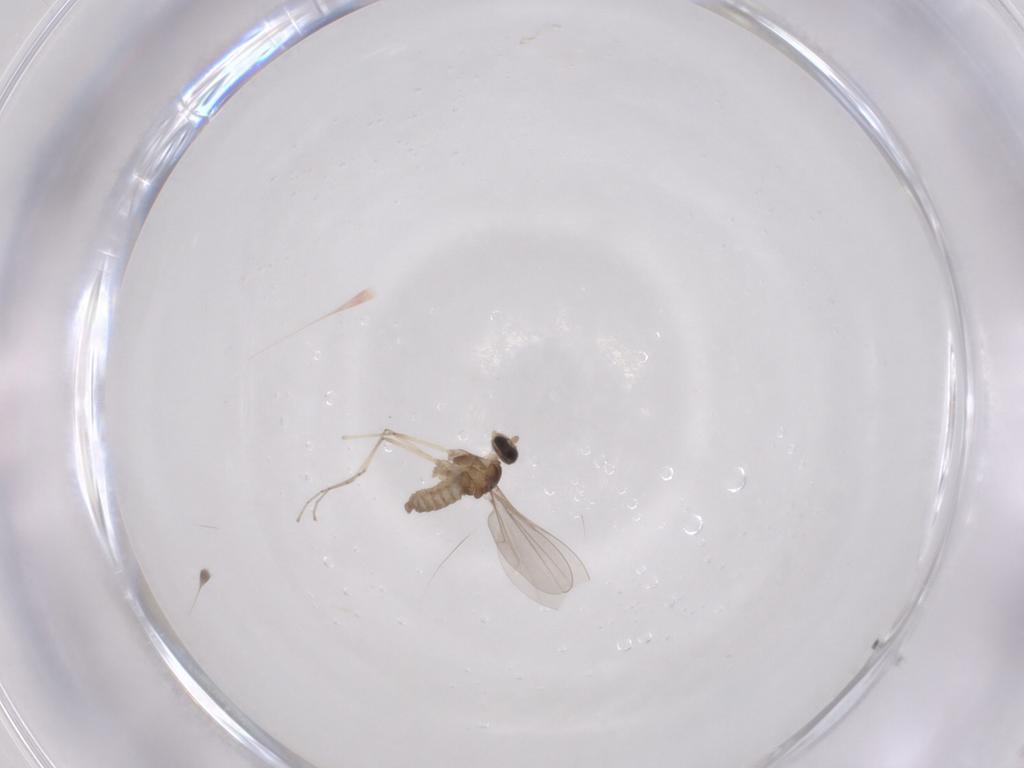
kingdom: Animalia
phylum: Arthropoda
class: Insecta
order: Diptera
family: Cecidomyiidae
